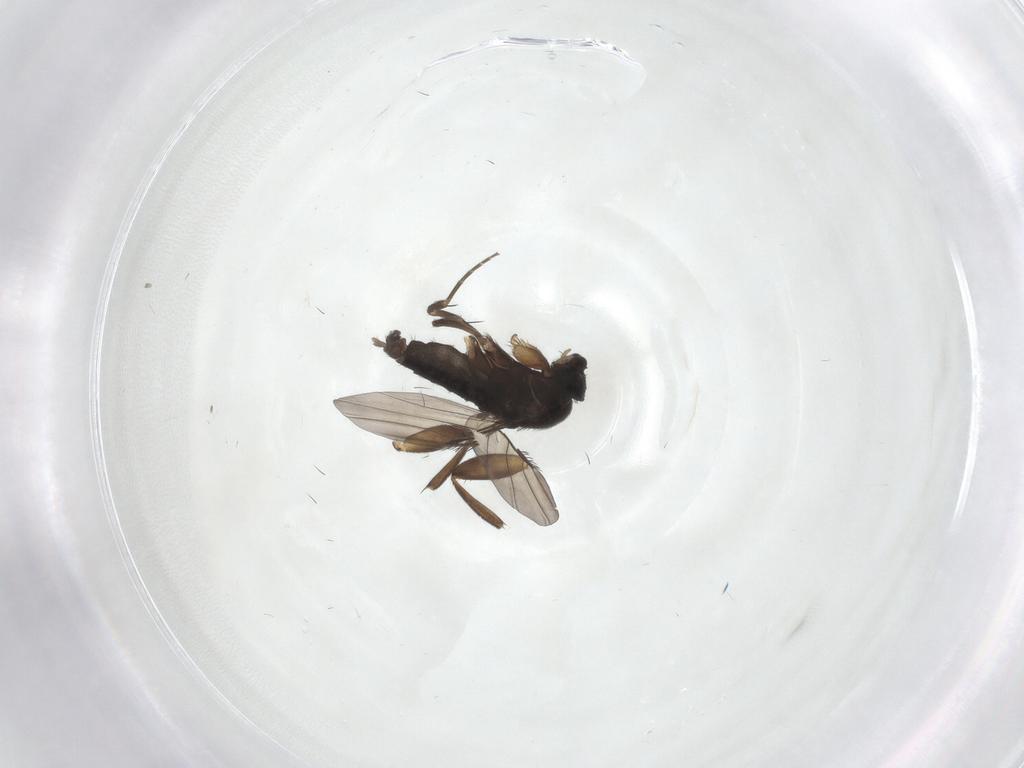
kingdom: Animalia
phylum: Arthropoda
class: Insecta
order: Diptera
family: Phoridae
